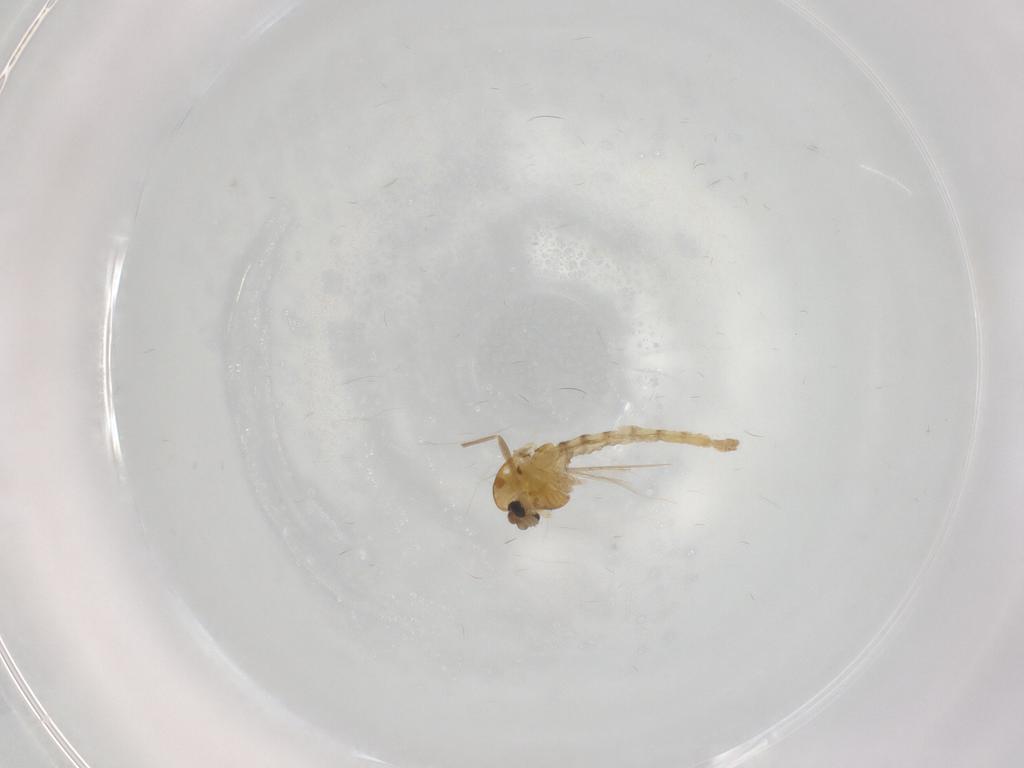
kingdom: Animalia
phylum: Arthropoda
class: Insecta
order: Diptera
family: Chironomidae
